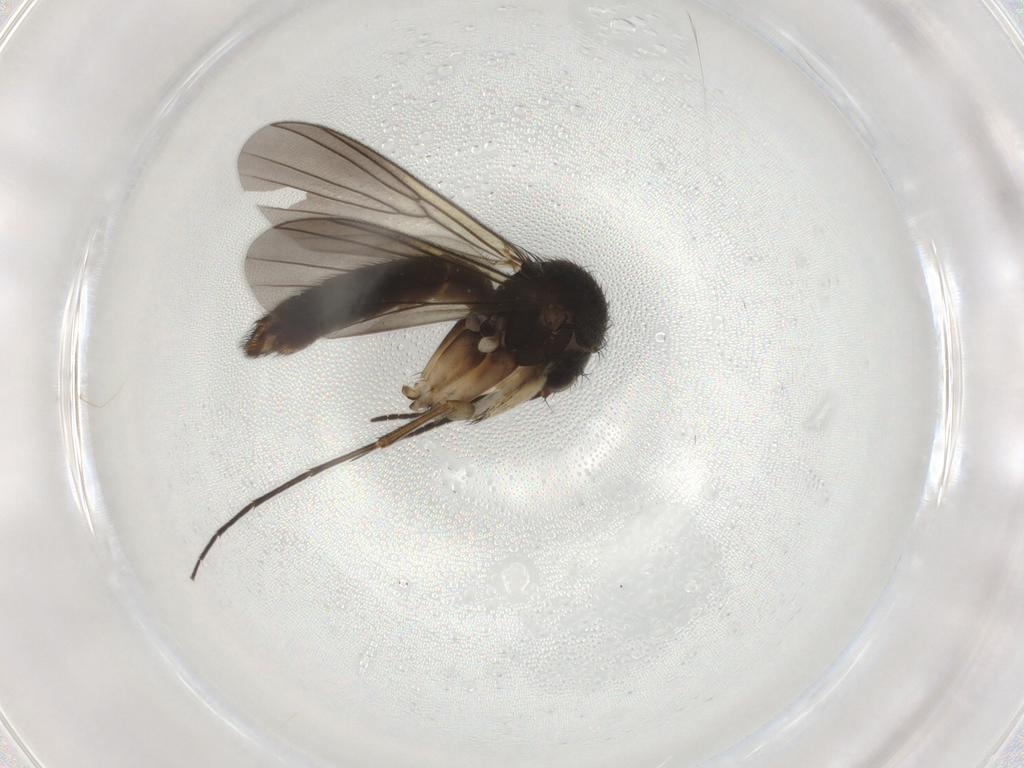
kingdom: Animalia
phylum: Arthropoda
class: Insecta
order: Diptera
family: Mycetophilidae
